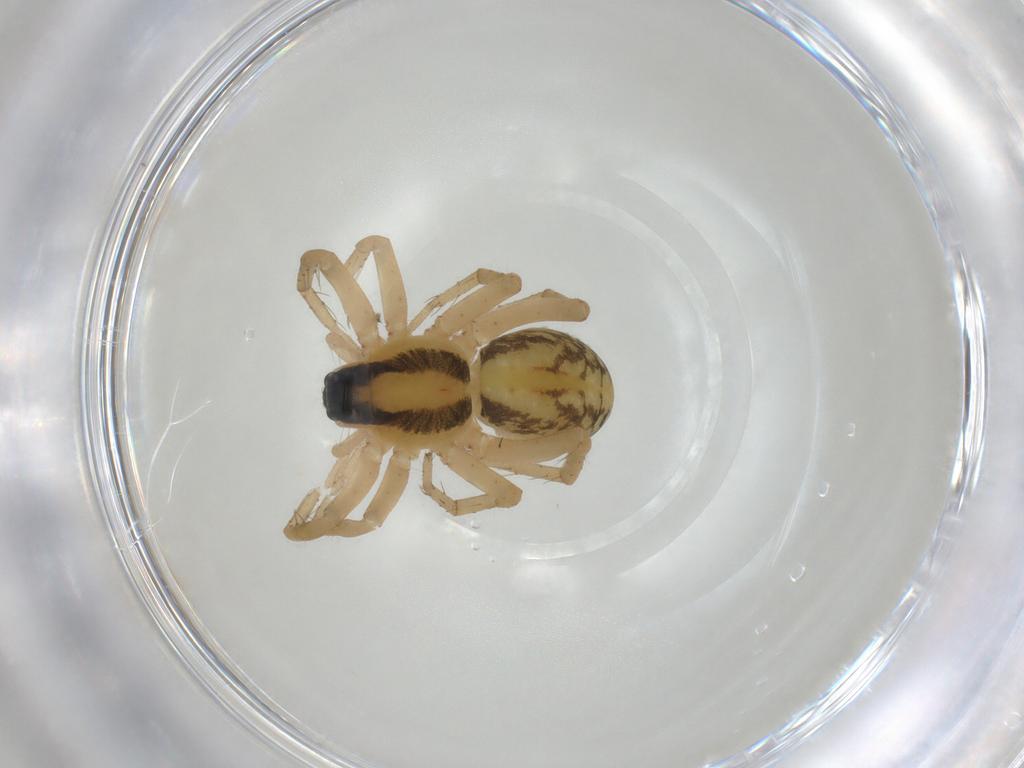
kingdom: Animalia
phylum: Arthropoda
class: Arachnida
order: Araneae
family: Lycosidae
